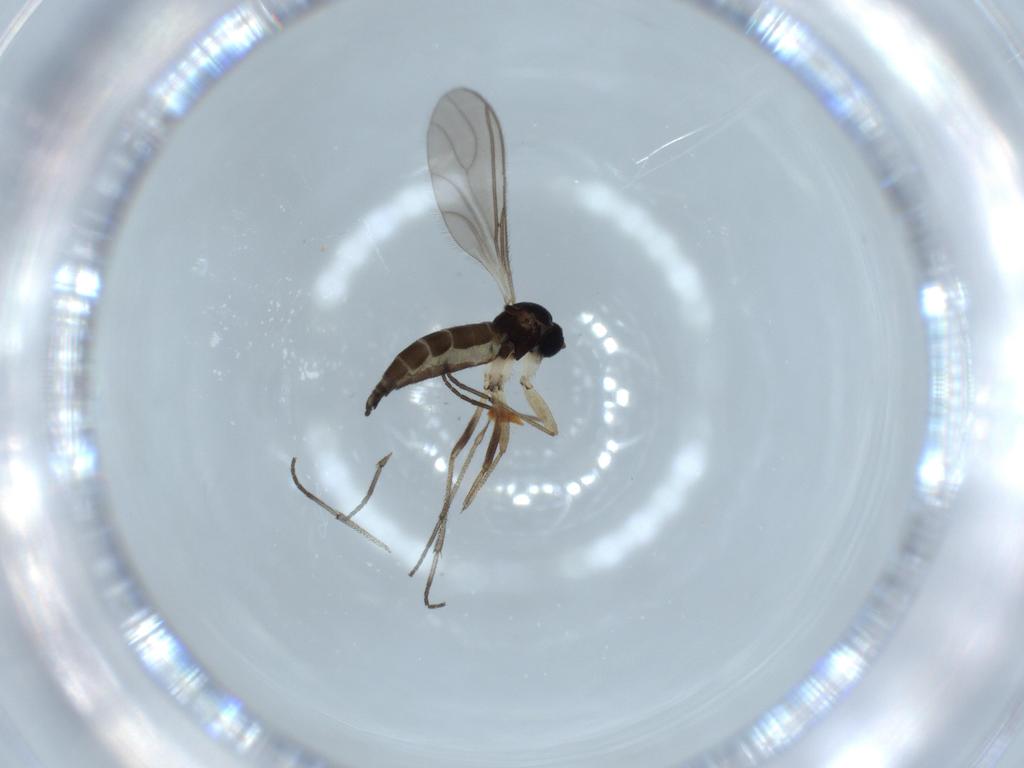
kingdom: Animalia
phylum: Arthropoda
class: Insecta
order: Diptera
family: Sciaridae
